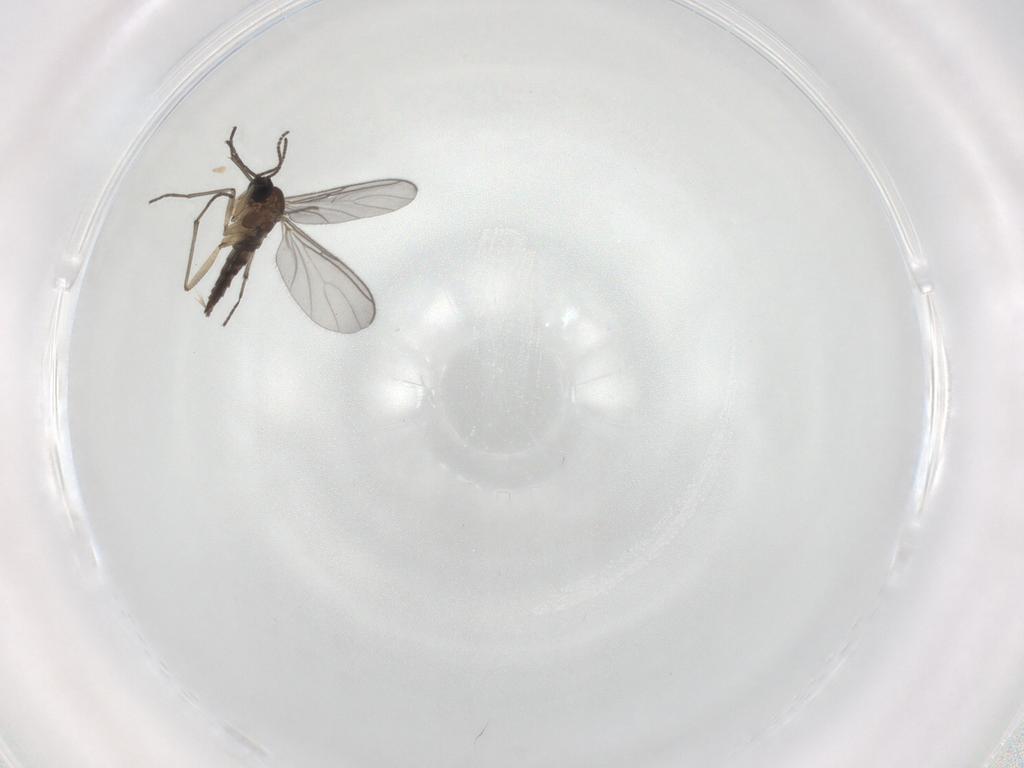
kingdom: Animalia
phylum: Arthropoda
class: Insecta
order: Diptera
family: Sciaridae
